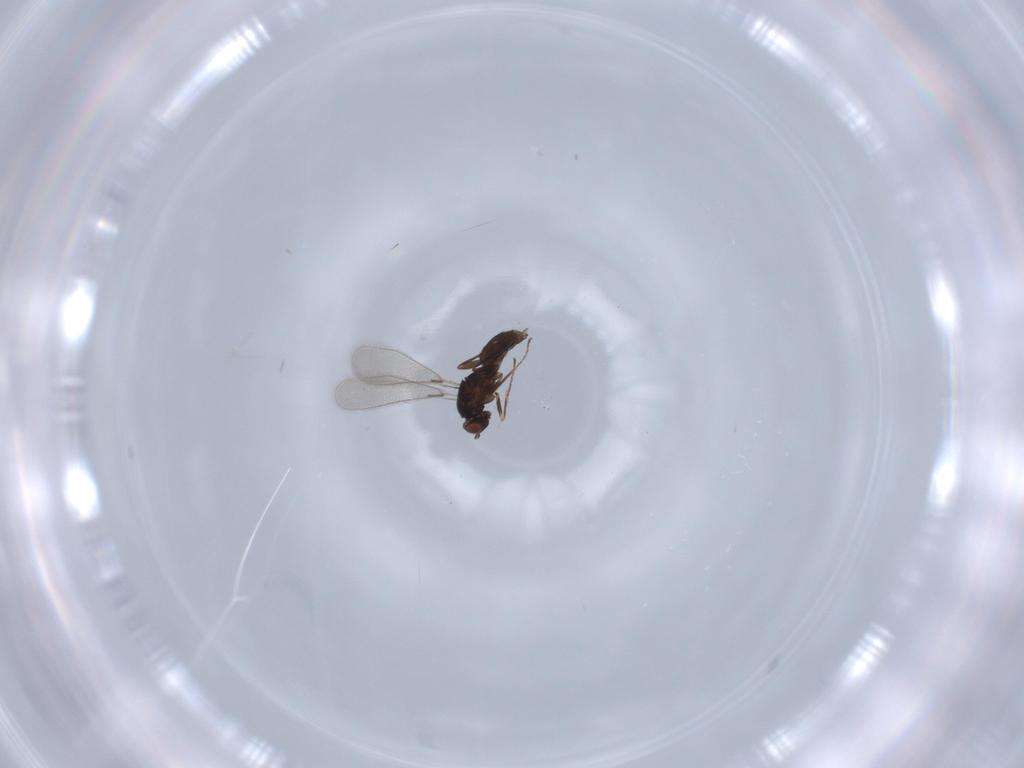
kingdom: Animalia
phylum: Arthropoda
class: Insecta
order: Hymenoptera
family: Mymaridae
